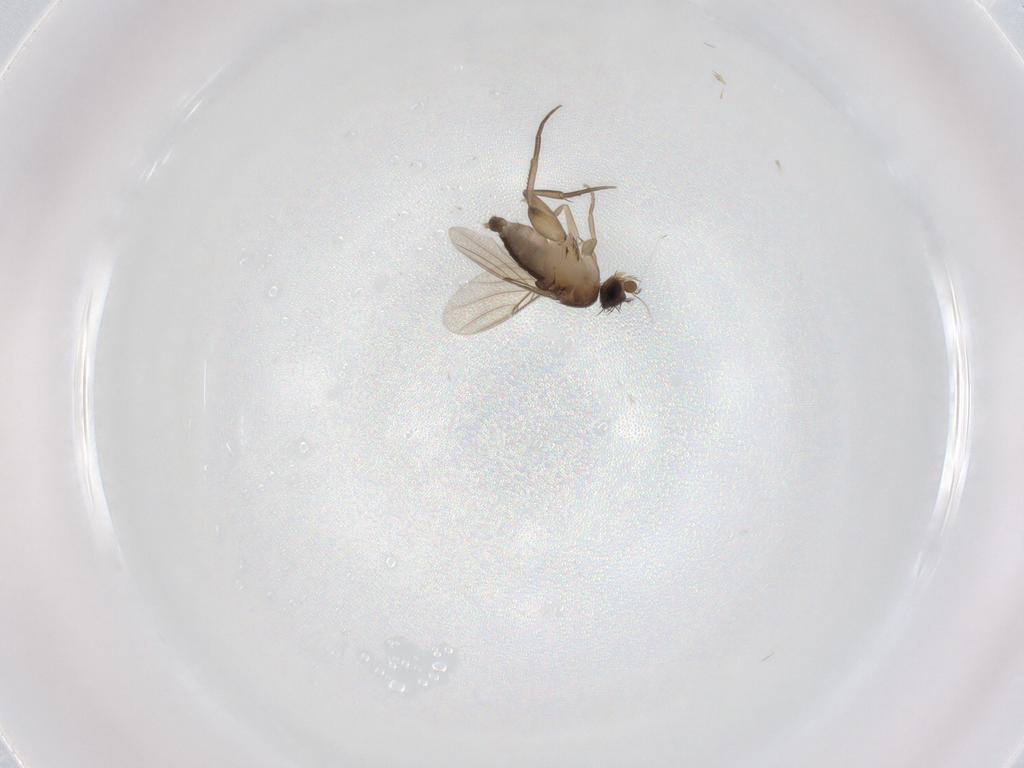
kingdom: Animalia
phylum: Arthropoda
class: Insecta
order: Diptera
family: Phoridae
